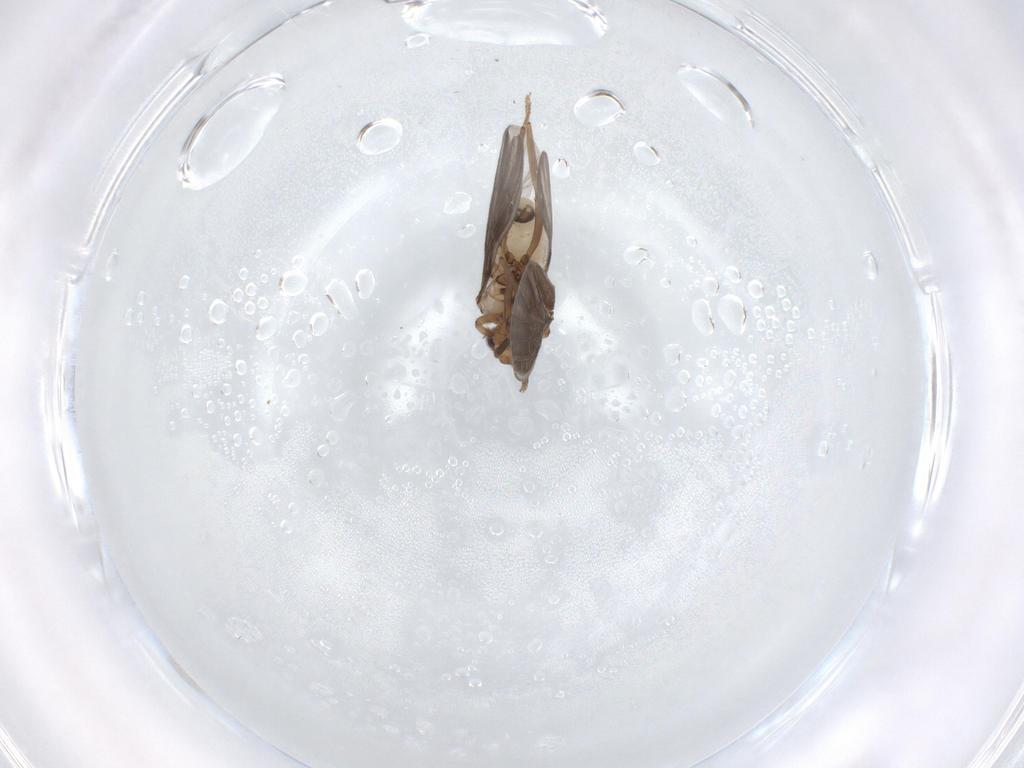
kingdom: Animalia
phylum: Arthropoda
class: Insecta
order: Neuroptera
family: Coniopterygidae
